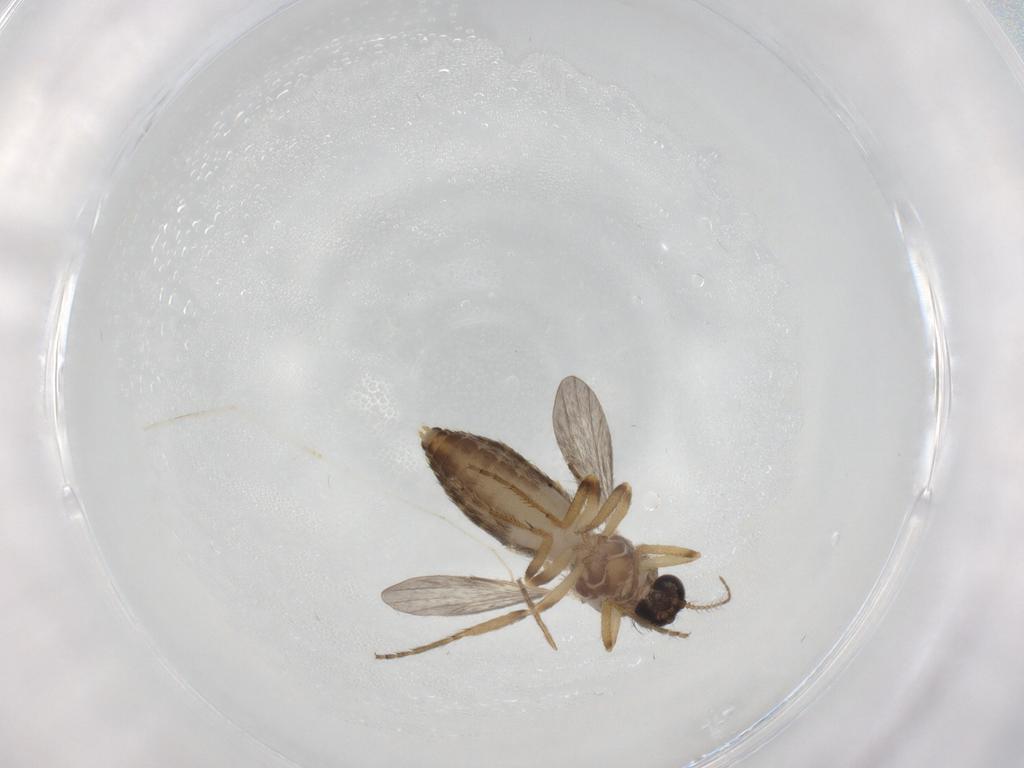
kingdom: Animalia
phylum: Arthropoda
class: Insecta
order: Diptera
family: Ceratopogonidae
